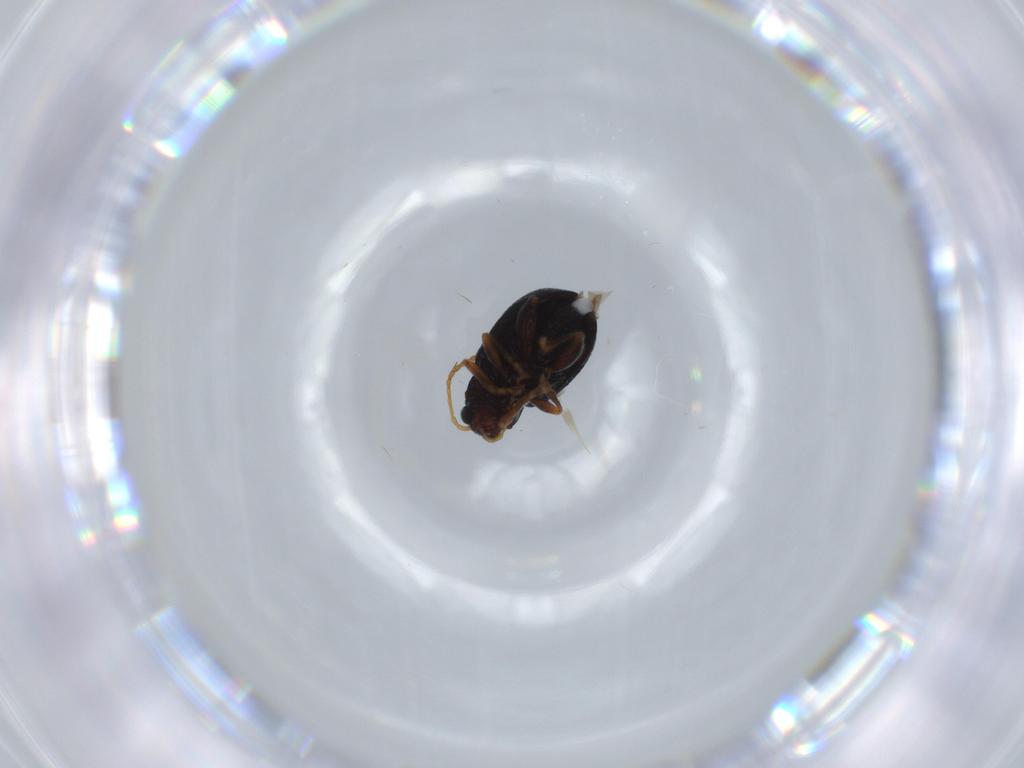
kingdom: Animalia
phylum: Arthropoda
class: Insecta
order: Coleoptera
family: Chrysomelidae
